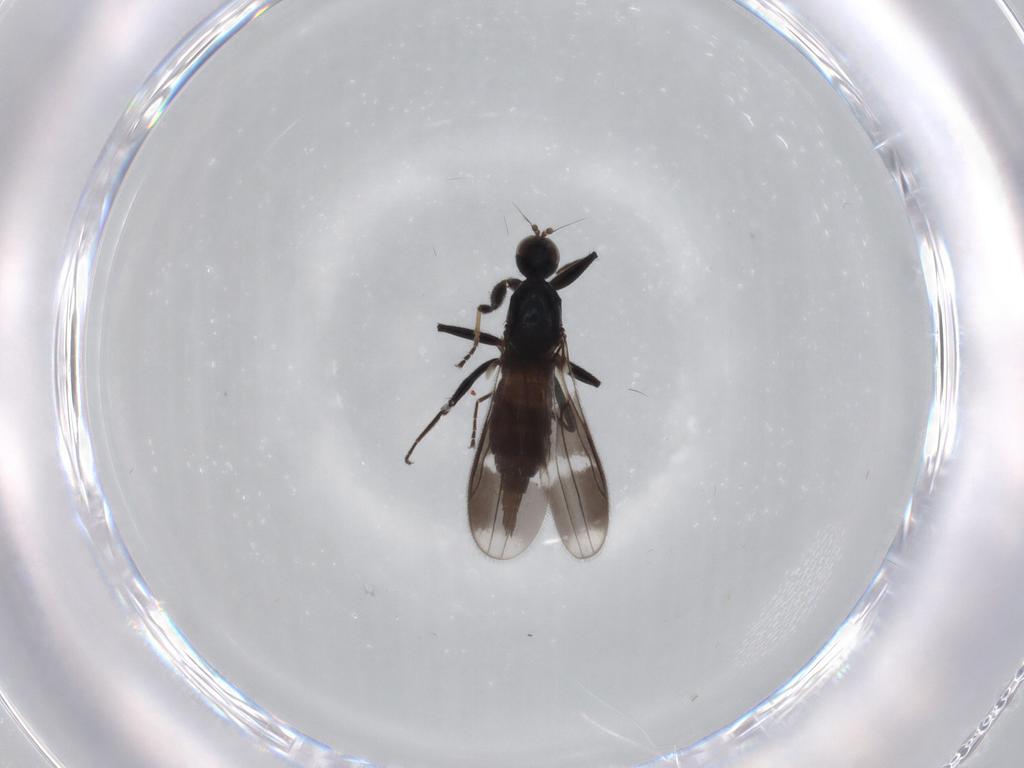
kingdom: Animalia
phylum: Arthropoda
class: Insecta
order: Diptera
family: Hybotidae
